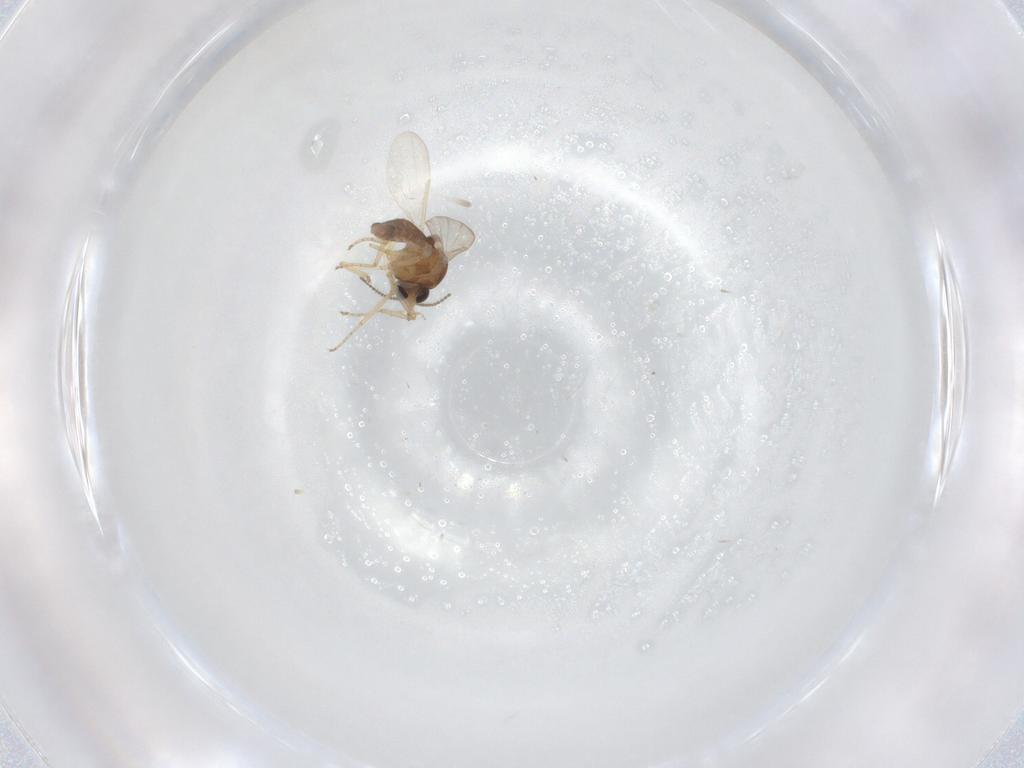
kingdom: Animalia
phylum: Arthropoda
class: Insecta
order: Diptera
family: Ceratopogonidae
